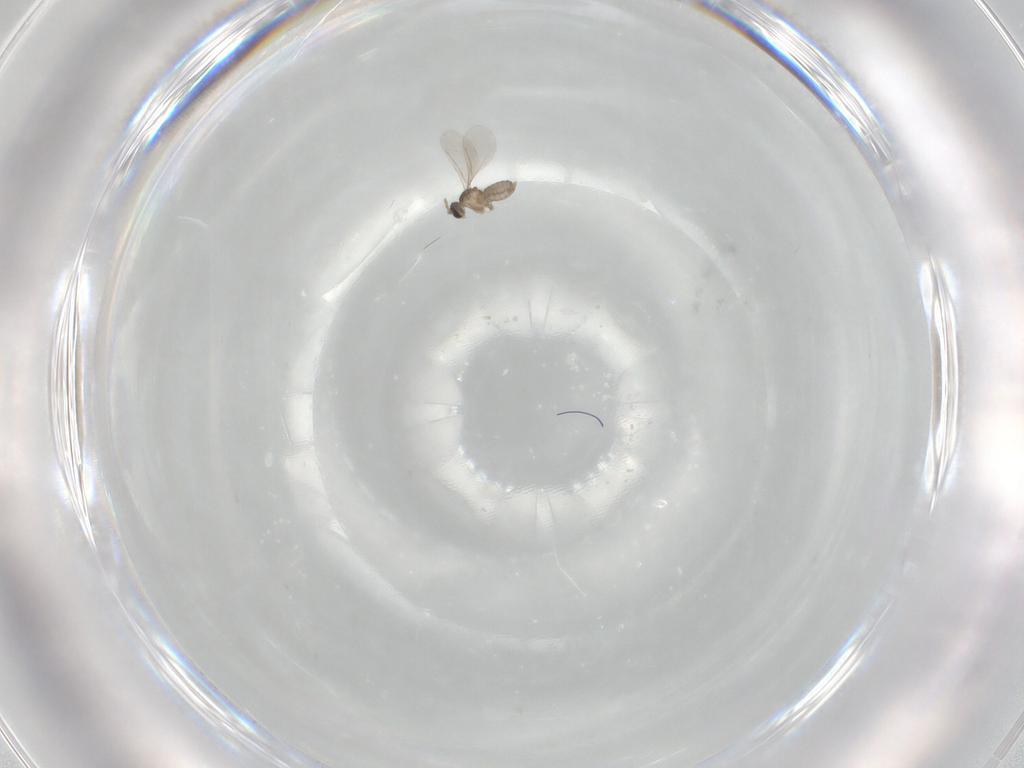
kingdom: Animalia
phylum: Arthropoda
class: Insecta
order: Diptera
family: Cecidomyiidae
